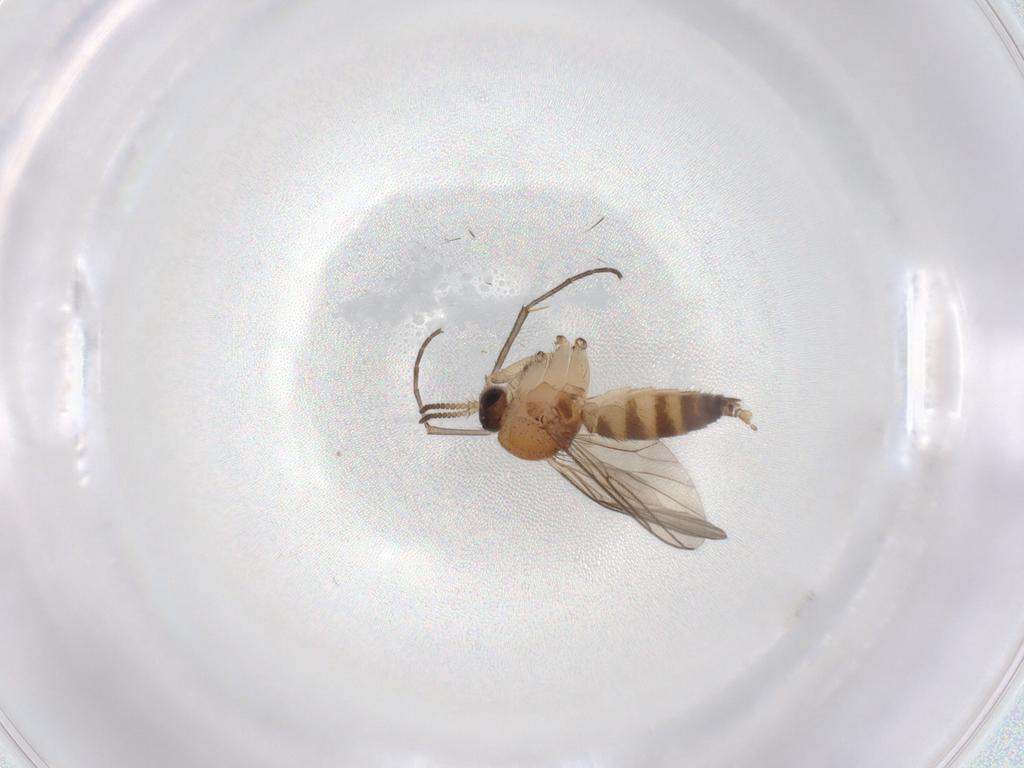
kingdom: Animalia
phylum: Arthropoda
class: Insecta
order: Diptera
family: Mycetophilidae
